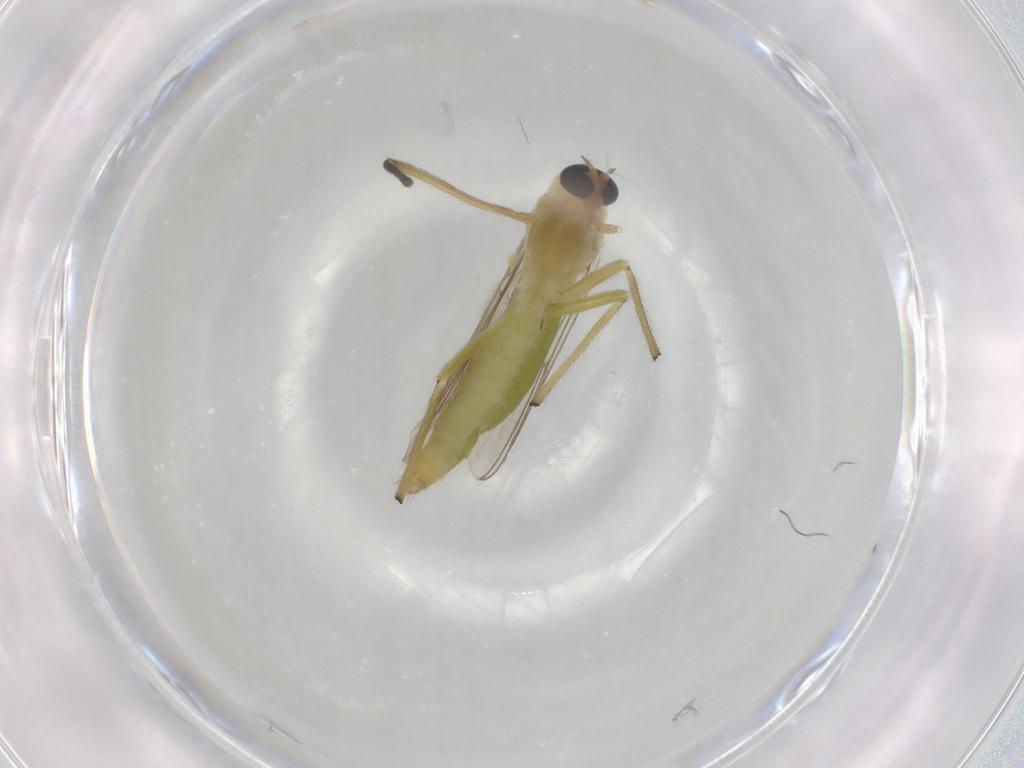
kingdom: Animalia
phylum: Arthropoda
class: Insecta
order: Diptera
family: Chironomidae
